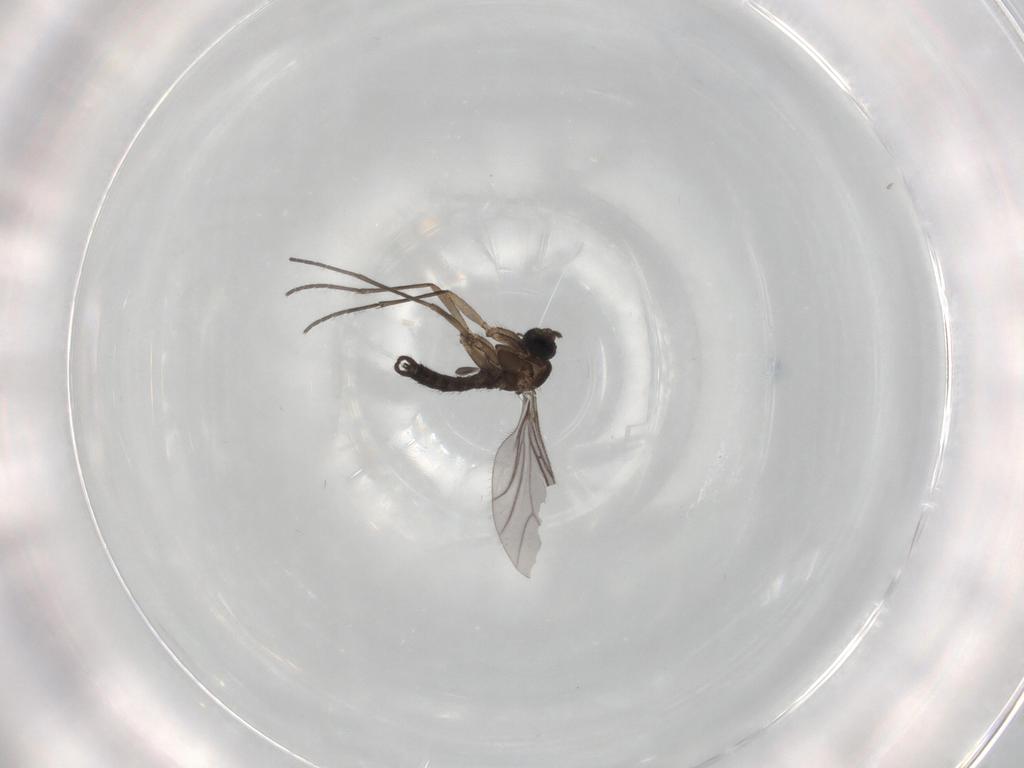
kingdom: Animalia
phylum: Arthropoda
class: Insecta
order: Diptera
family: Sciaridae
